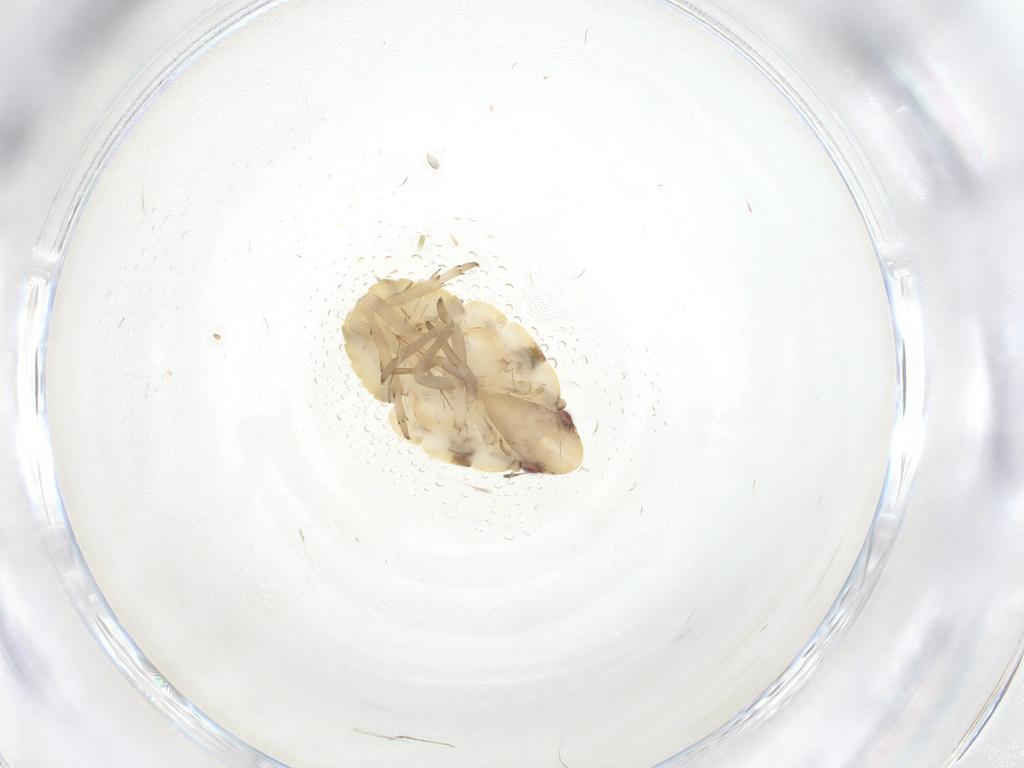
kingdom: Animalia
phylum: Arthropoda
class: Insecta
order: Hemiptera
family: Flatidae
